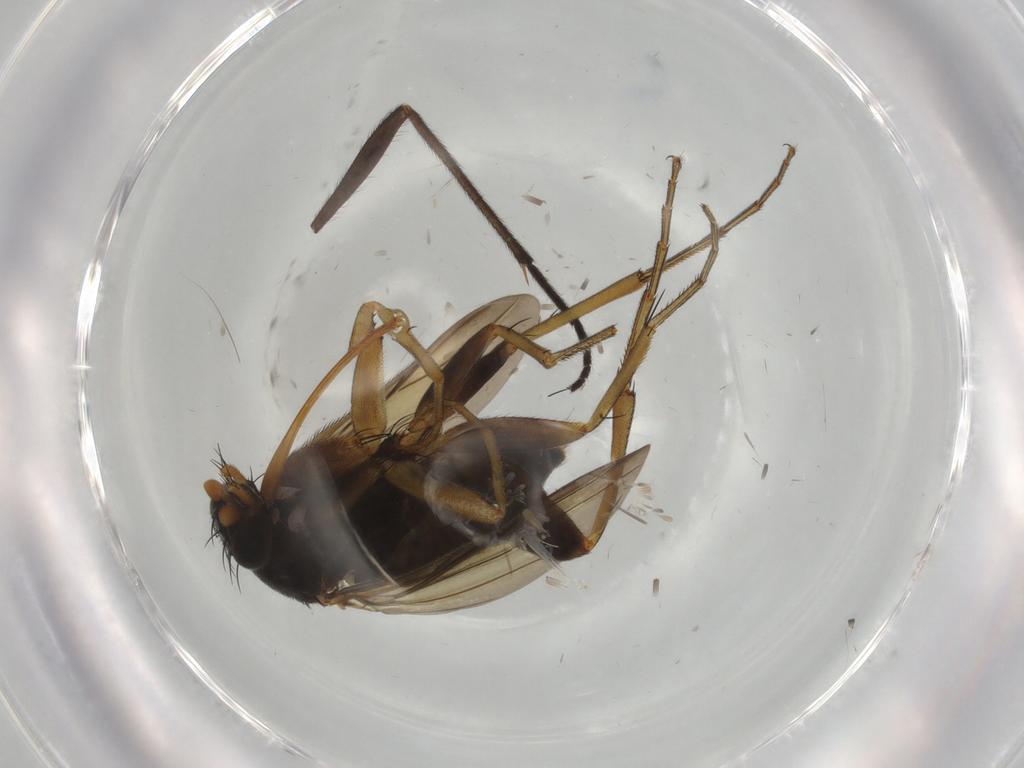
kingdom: Animalia
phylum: Arthropoda
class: Insecta
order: Diptera
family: Phoridae
